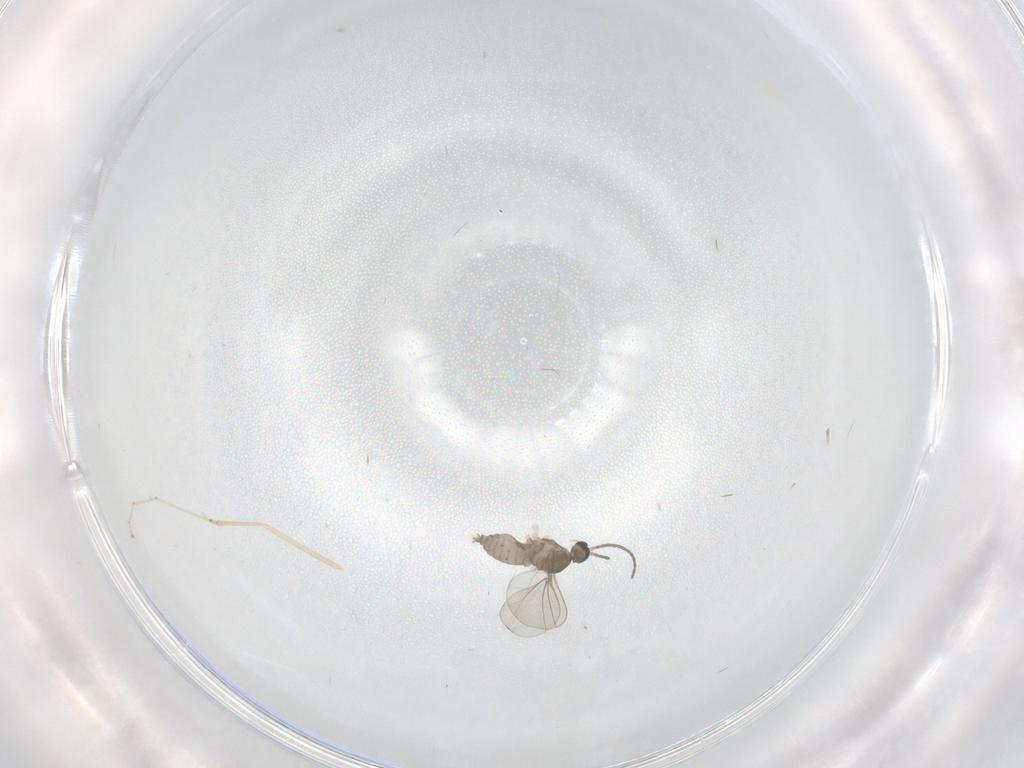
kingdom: Animalia
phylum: Arthropoda
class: Insecta
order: Diptera
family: Cecidomyiidae
